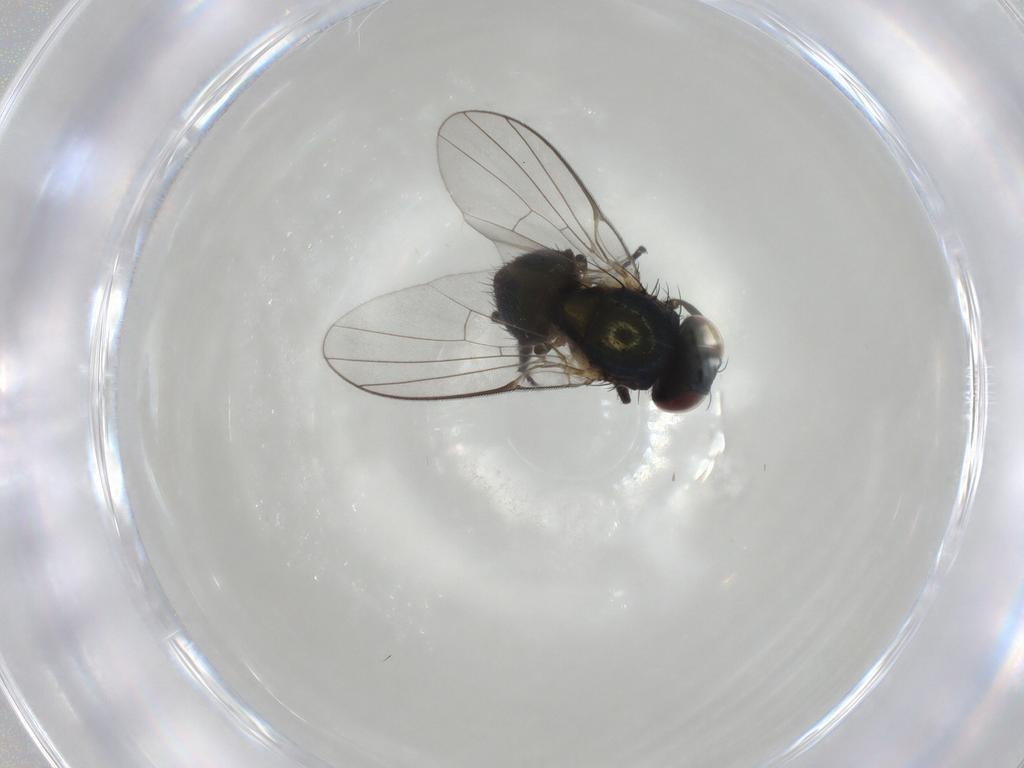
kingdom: Animalia
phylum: Arthropoda
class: Insecta
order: Diptera
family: Agromyzidae
